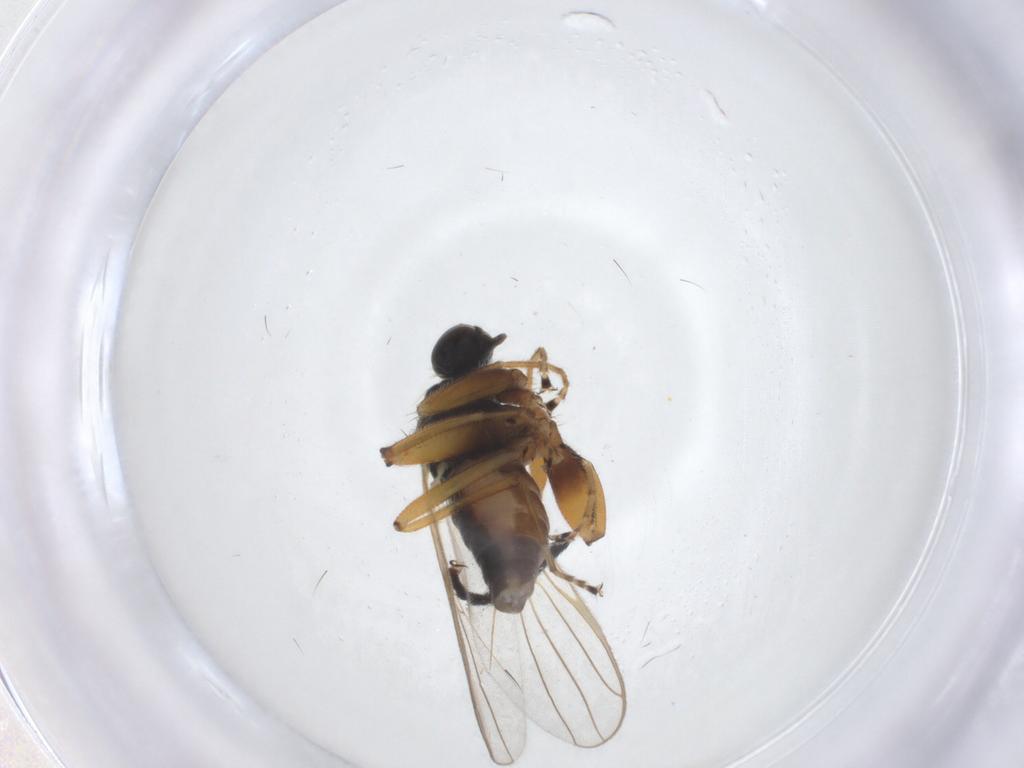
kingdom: Animalia
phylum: Arthropoda
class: Insecta
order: Diptera
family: Hybotidae
